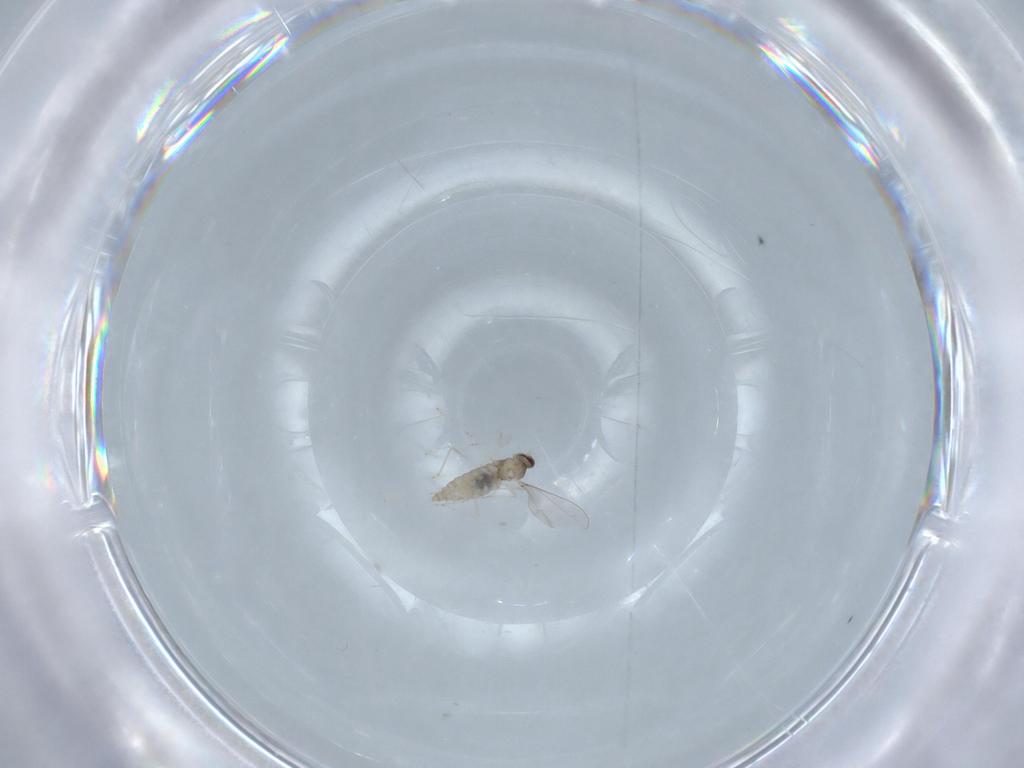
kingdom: Animalia
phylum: Arthropoda
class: Insecta
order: Diptera
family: Cecidomyiidae
